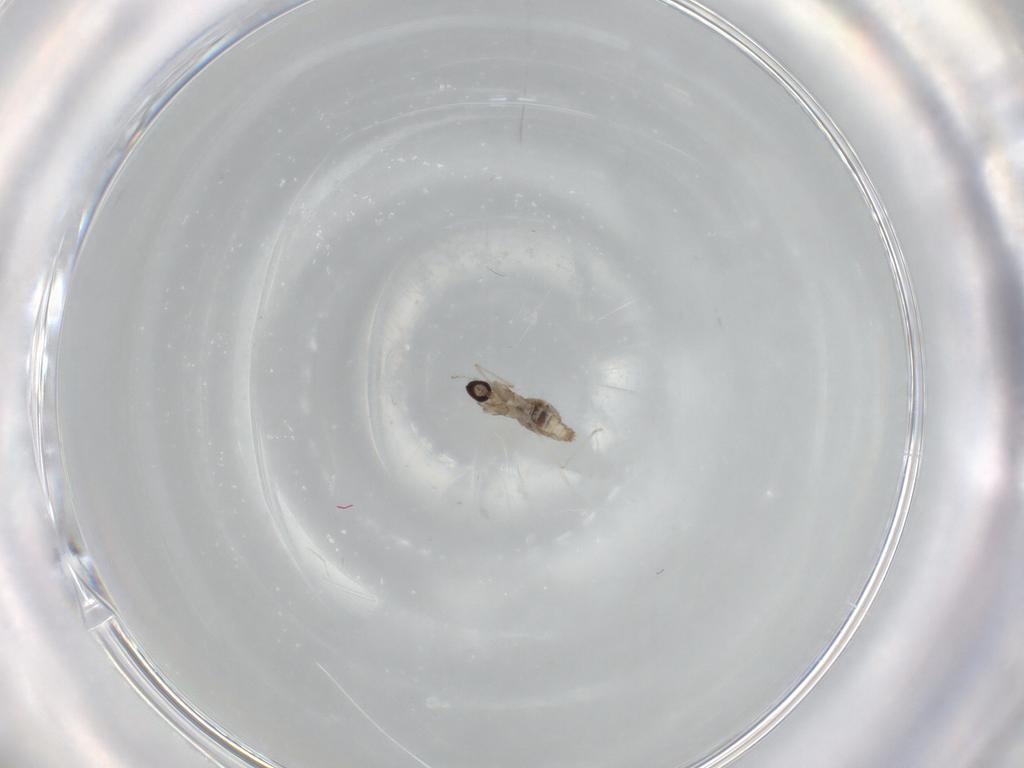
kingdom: Animalia
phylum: Arthropoda
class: Insecta
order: Diptera
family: Cecidomyiidae
